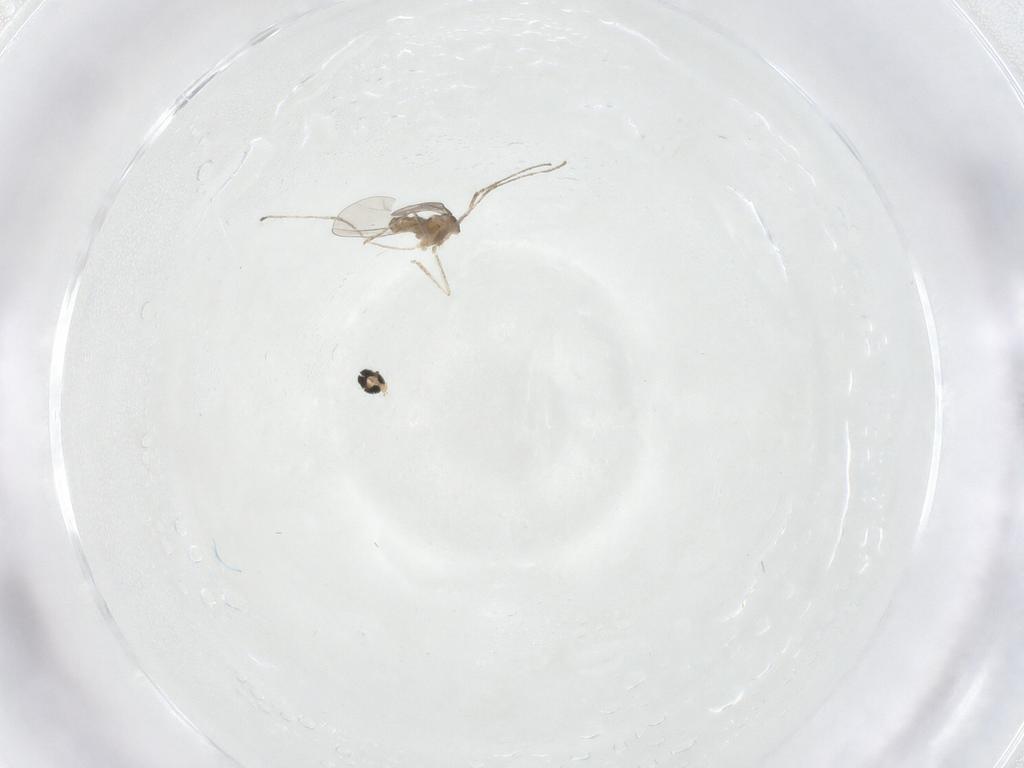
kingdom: Animalia
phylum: Arthropoda
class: Insecta
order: Diptera
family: Cecidomyiidae
